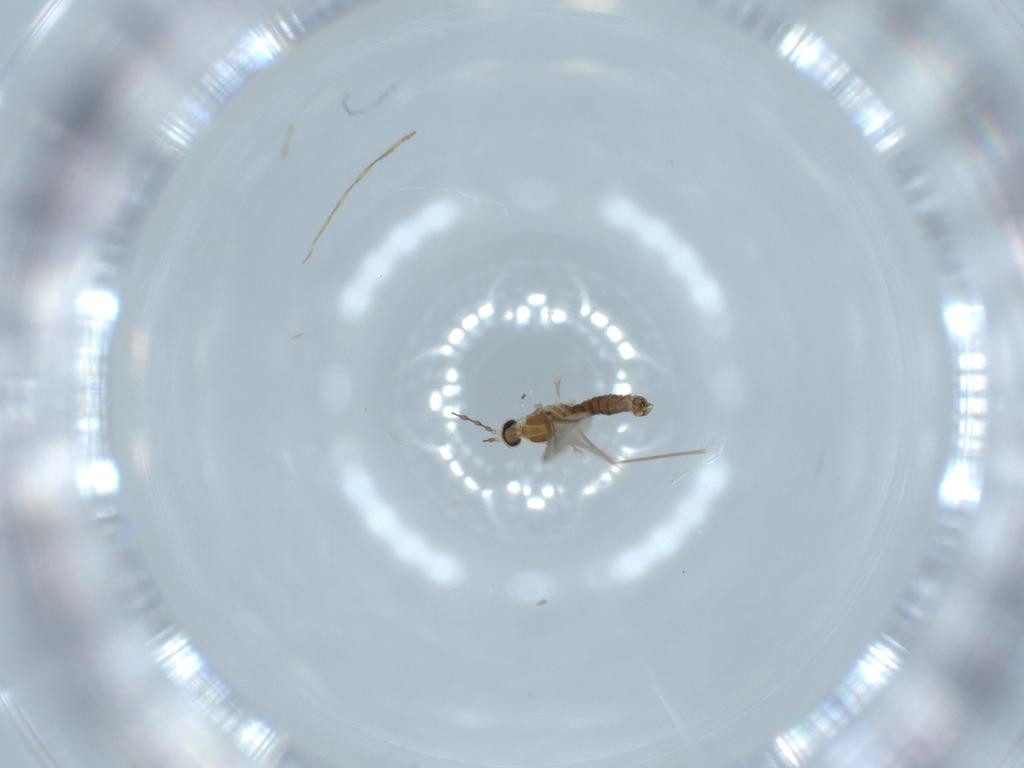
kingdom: Animalia
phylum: Arthropoda
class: Insecta
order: Diptera
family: Cecidomyiidae
